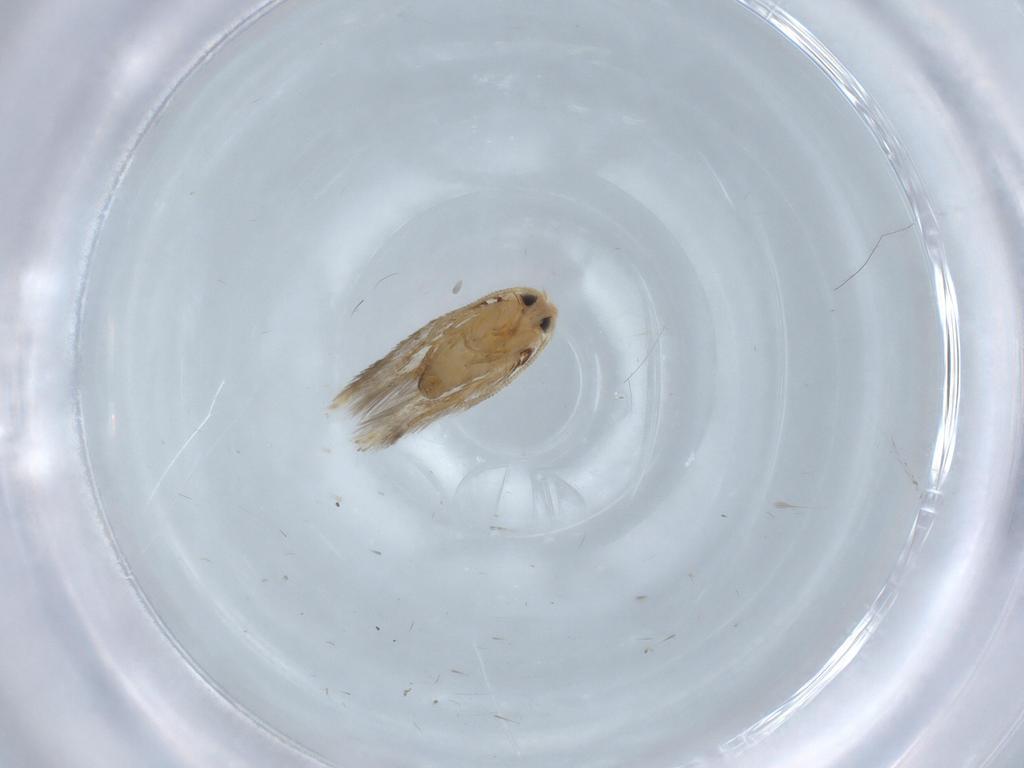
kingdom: Animalia
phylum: Arthropoda
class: Insecta
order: Lepidoptera
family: Nepticulidae
